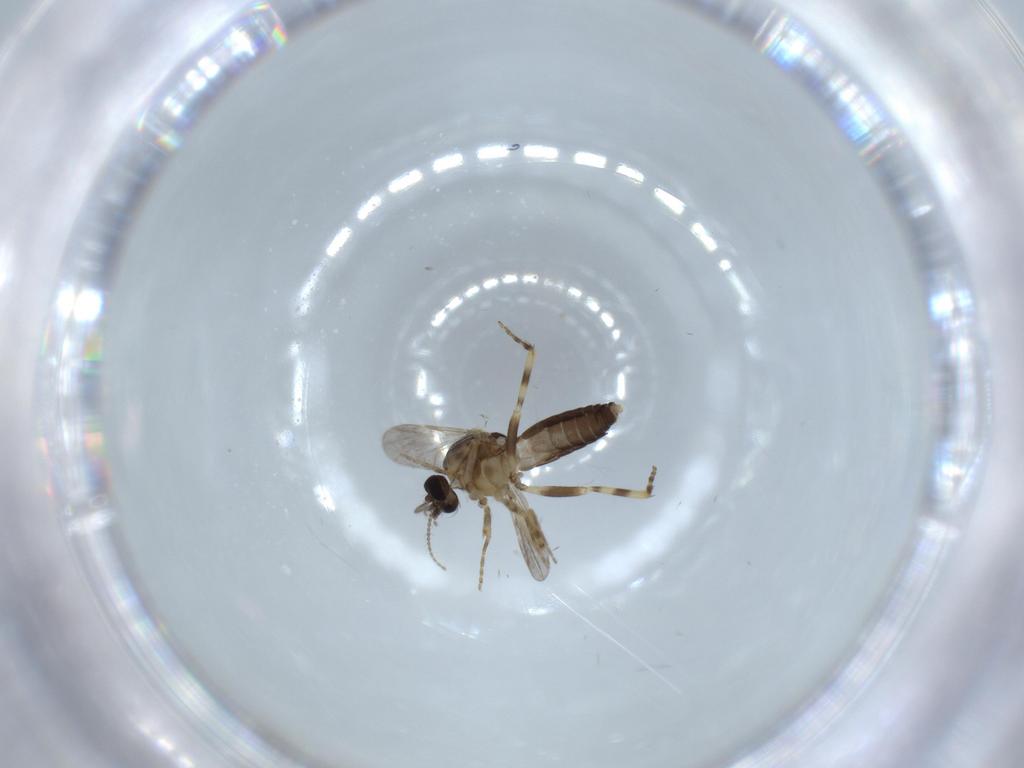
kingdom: Animalia
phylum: Arthropoda
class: Insecta
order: Diptera
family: Ceratopogonidae
